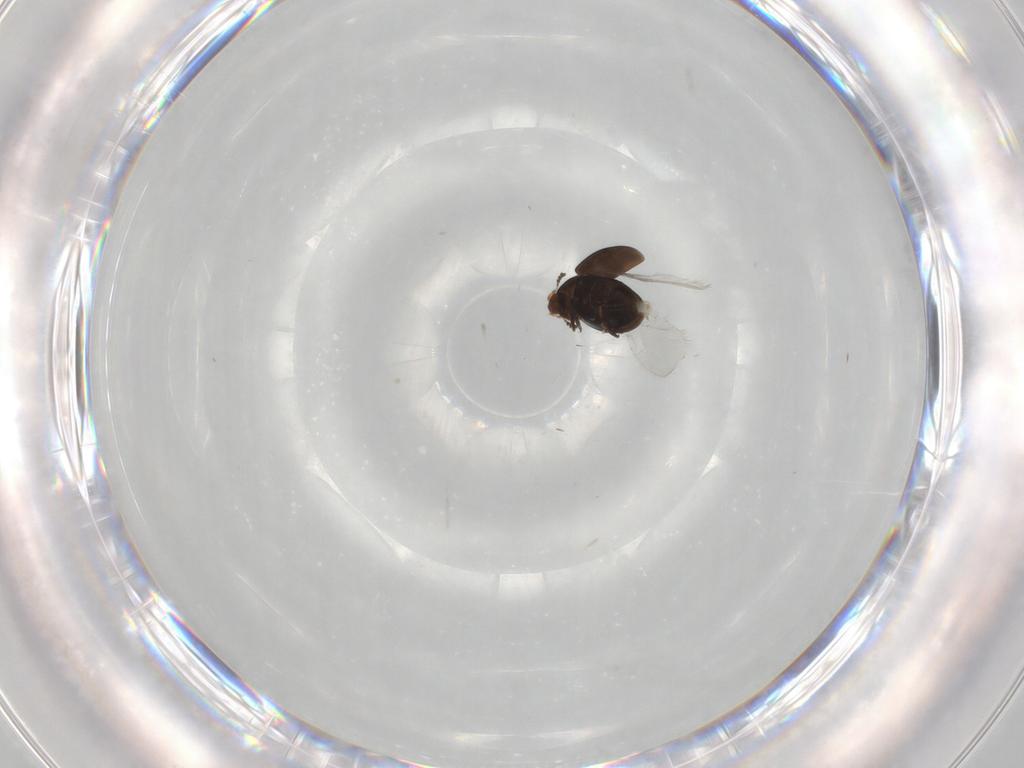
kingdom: Animalia
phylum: Arthropoda
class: Insecta
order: Coleoptera
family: Corylophidae
